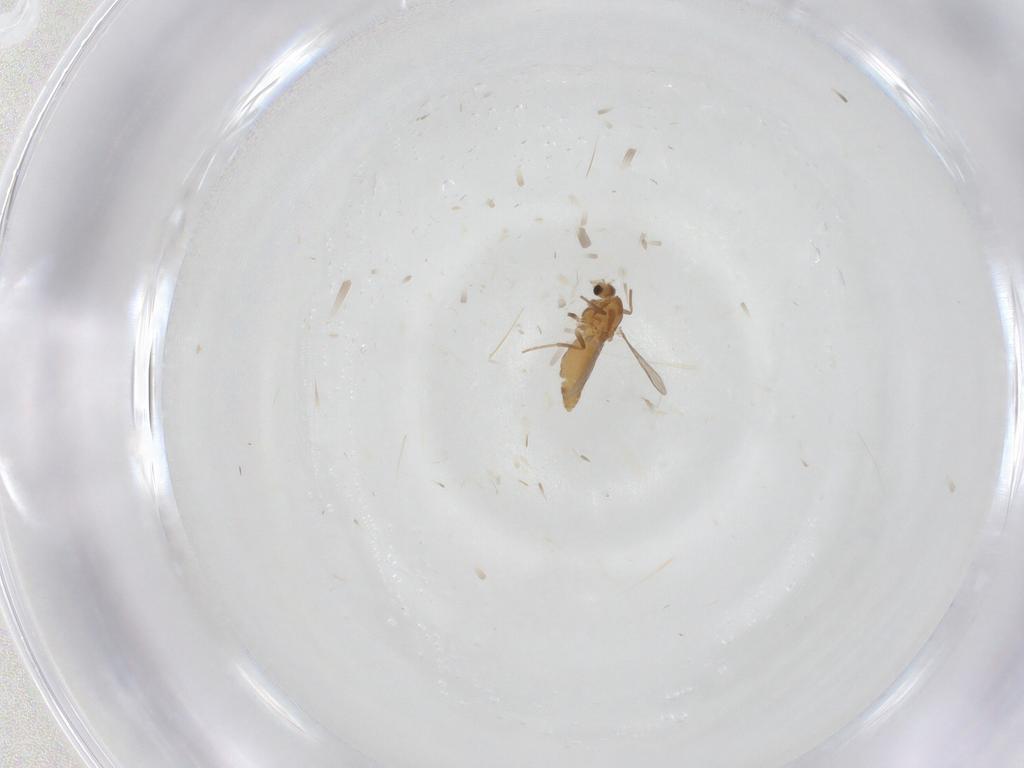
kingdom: Animalia
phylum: Arthropoda
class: Insecta
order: Diptera
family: Chironomidae
